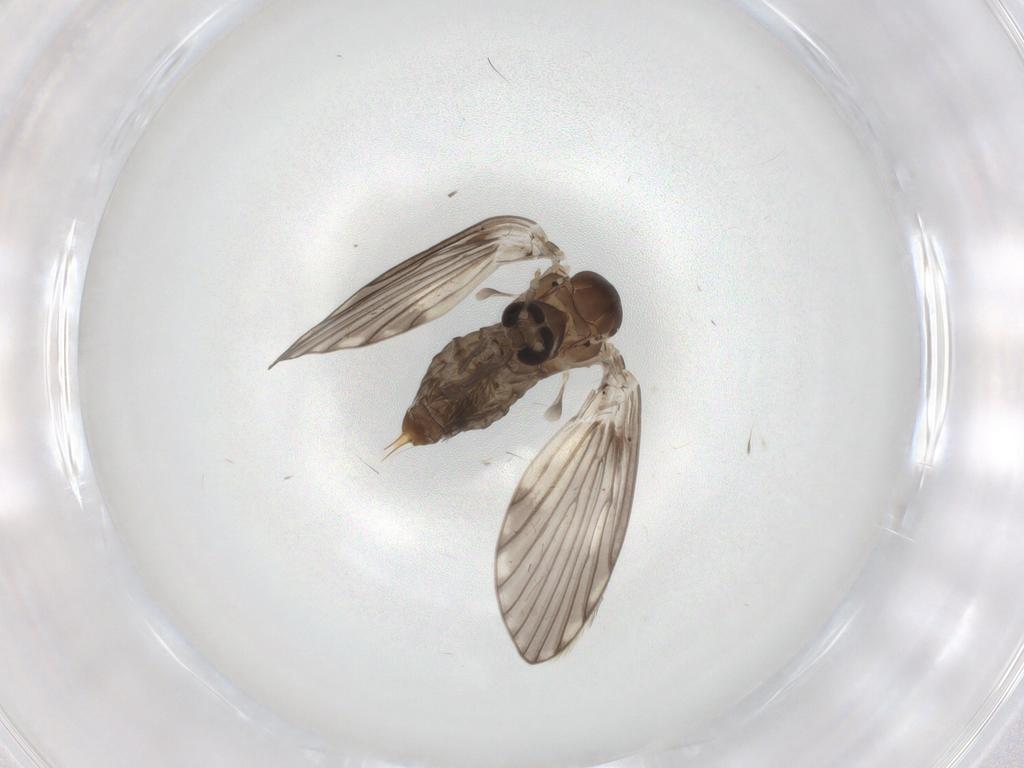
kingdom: Animalia
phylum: Arthropoda
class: Insecta
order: Diptera
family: Psychodidae
